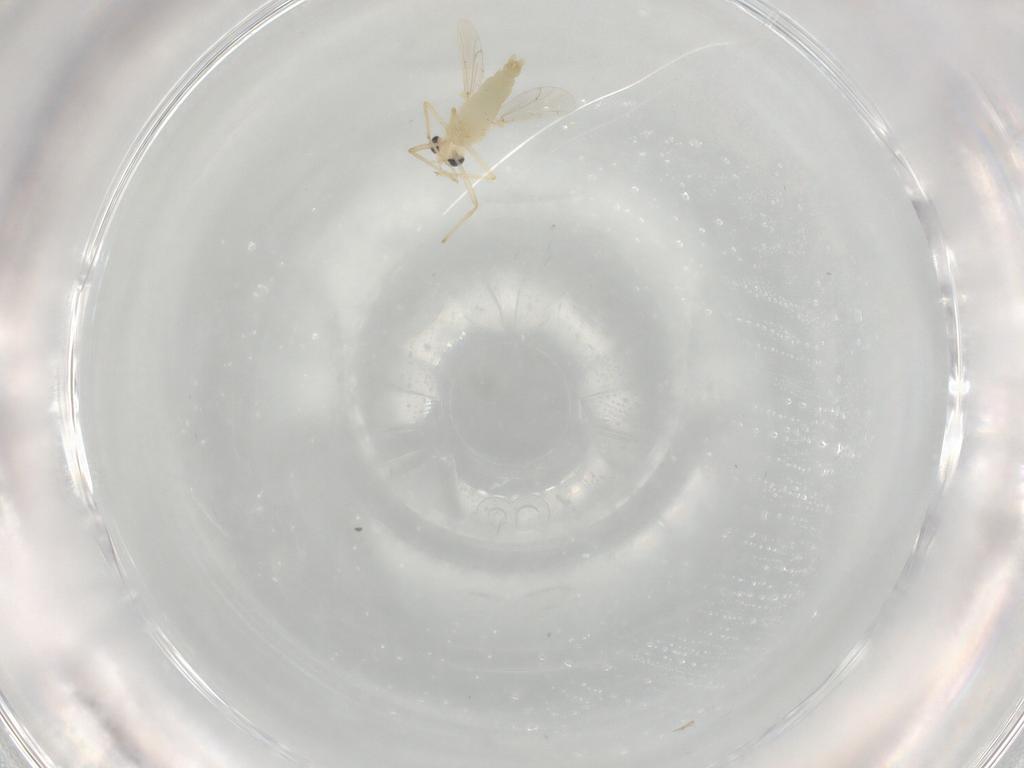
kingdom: Animalia
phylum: Arthropoda
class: Insecta
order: Diptera
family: Chironomidae
